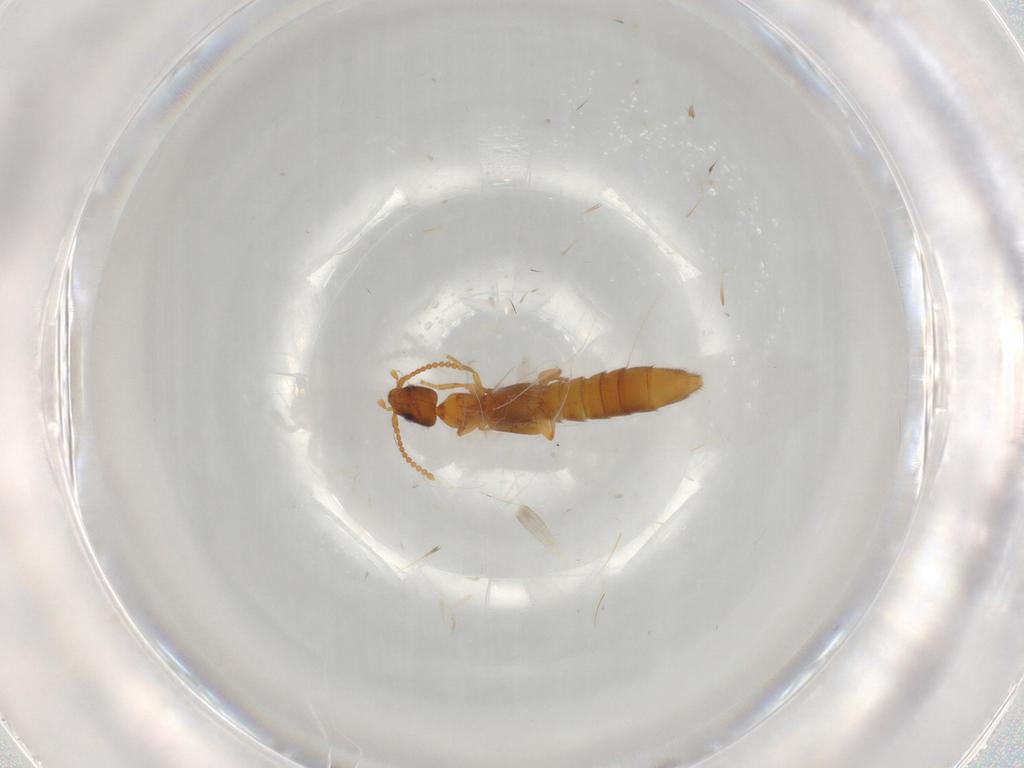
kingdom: Animalia
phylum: Arthropoda
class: Insecta
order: Coleoptera
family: Staphylinidae
